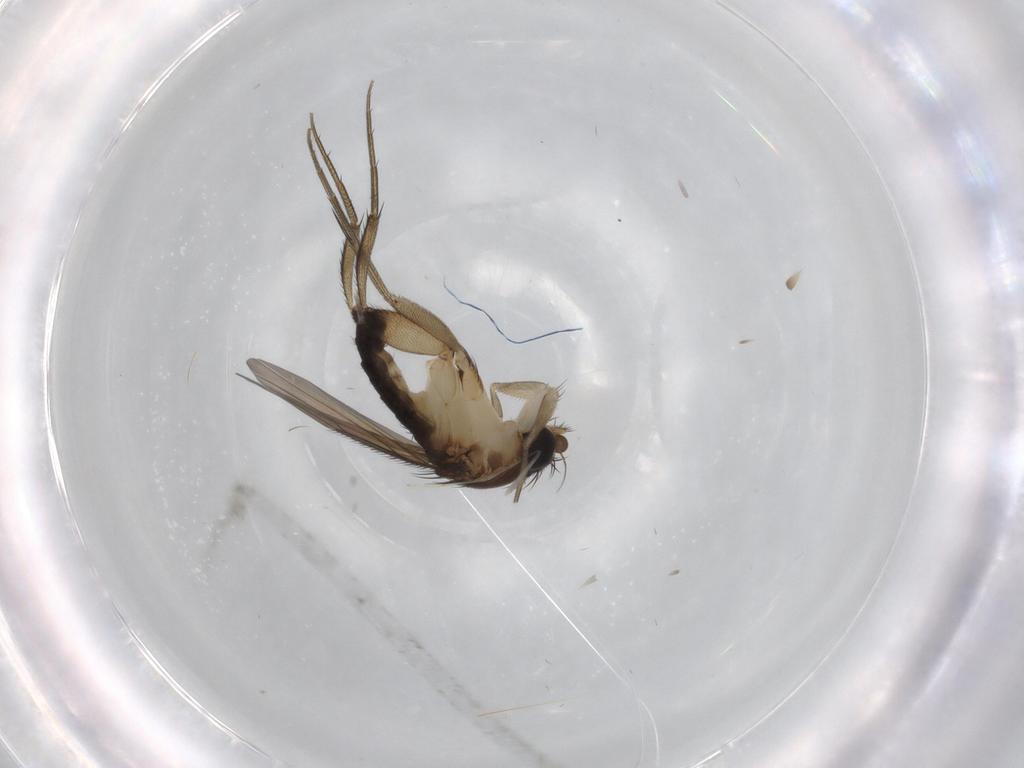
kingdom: Animalia
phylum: Arthropoda
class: Insecta
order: Diptera
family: Phoridae
